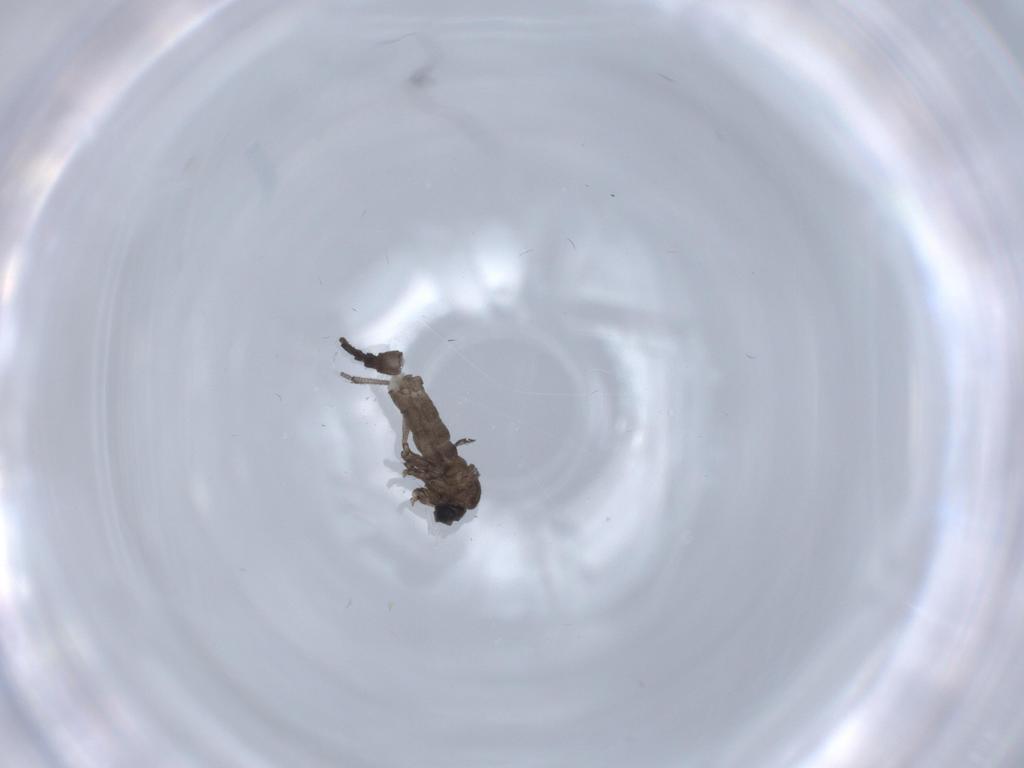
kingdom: Animalia
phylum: Arthropoda
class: Insecta
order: Diptera
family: Sciaridae
